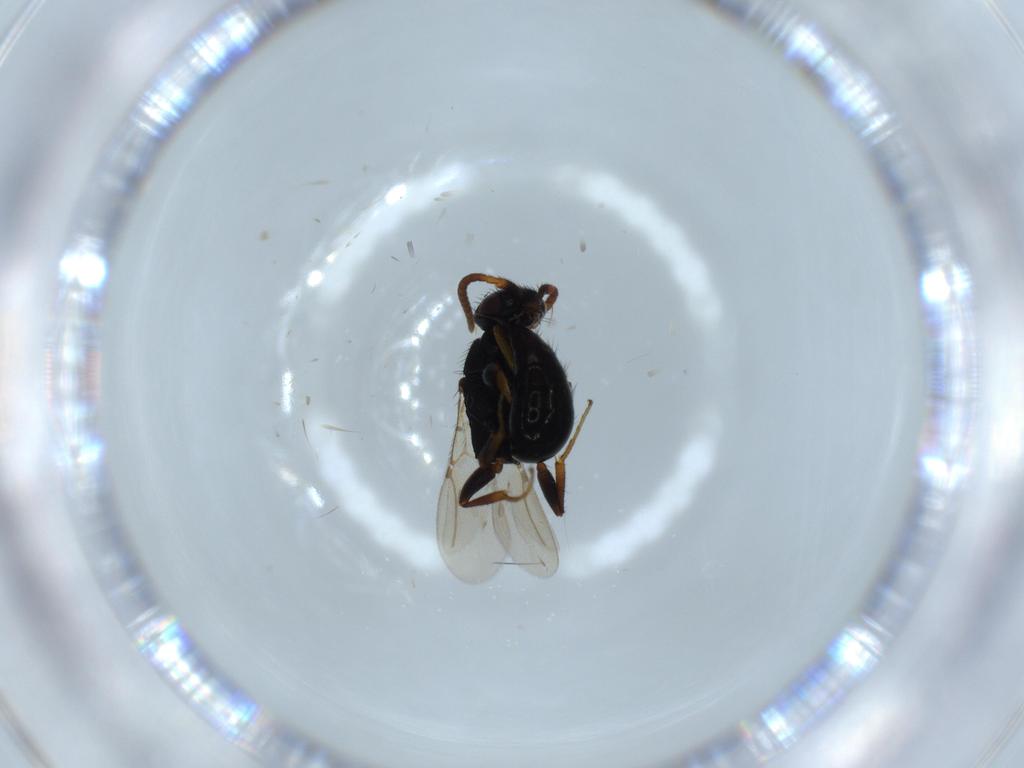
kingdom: Animalia
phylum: Arthropoda
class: Insecta
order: Hymenoptera
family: Bethylidae
